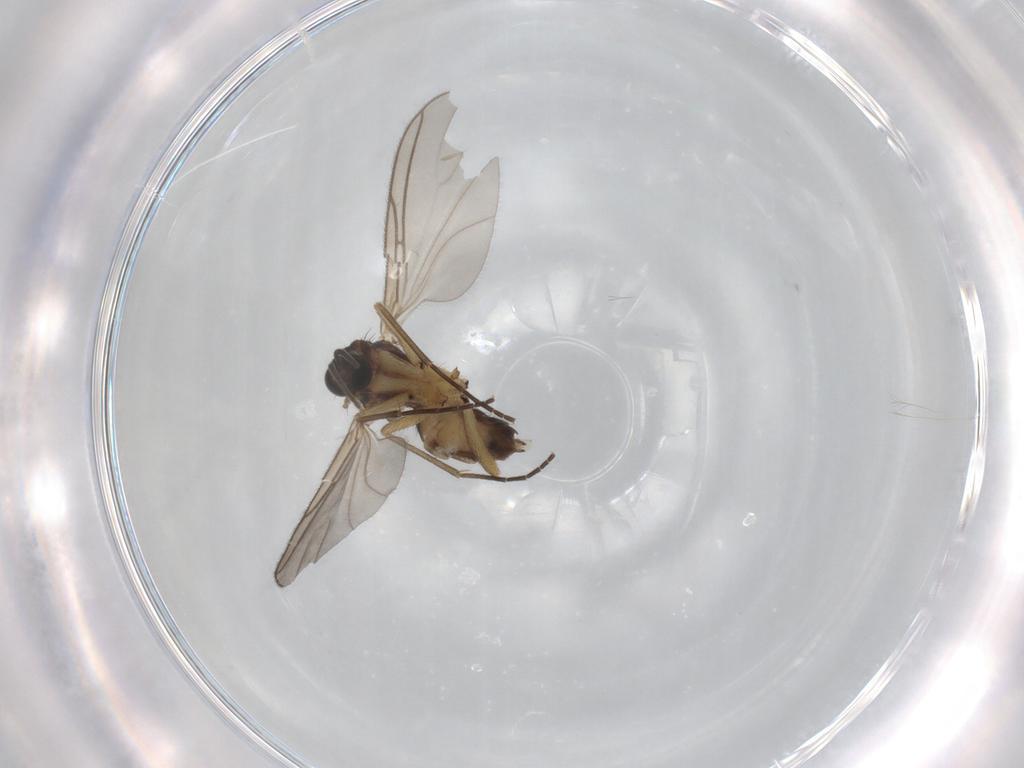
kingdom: Animalia
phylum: Arthropoda
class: Insecta
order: Diptera
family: Sciaridae
